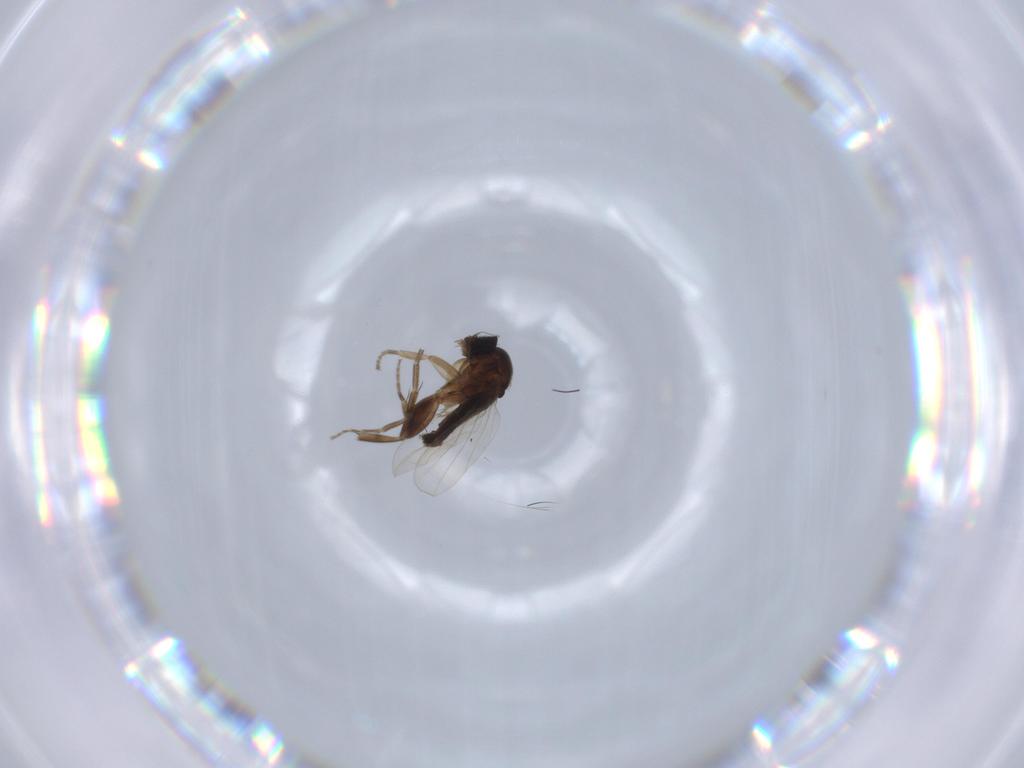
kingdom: Animalia
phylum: Arthropoda
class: Insecta
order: Diptera
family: Phoridae
